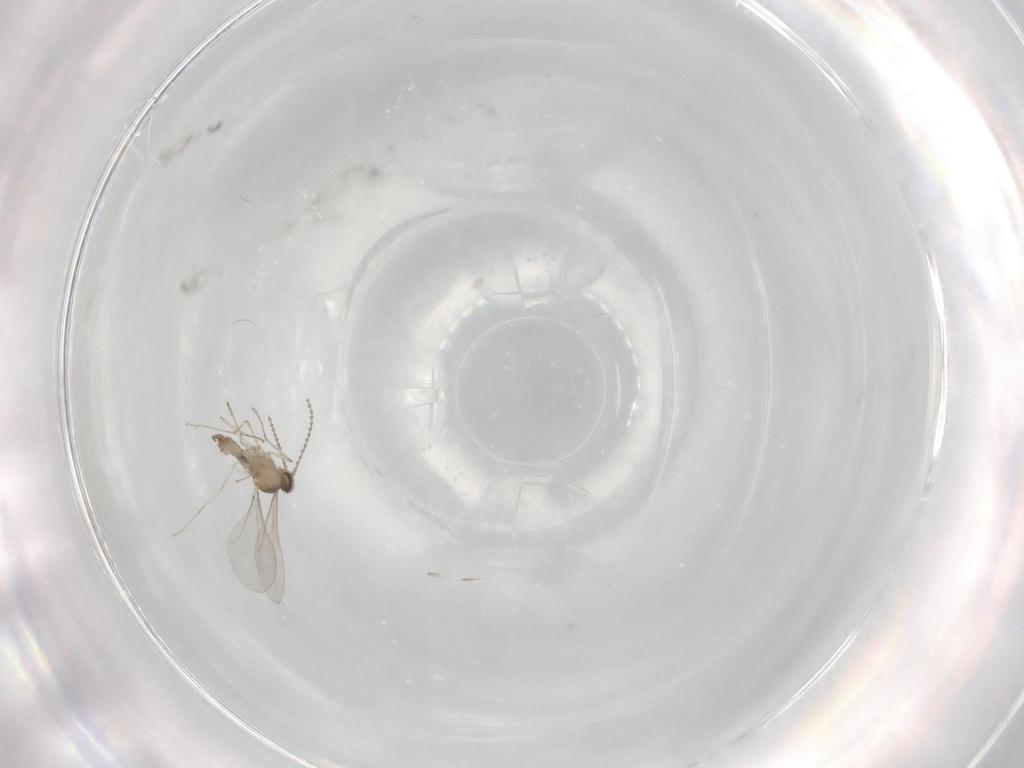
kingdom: Animalia
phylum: Arthropoda
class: Insecta
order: Diptera
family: Cecidomyiidae
